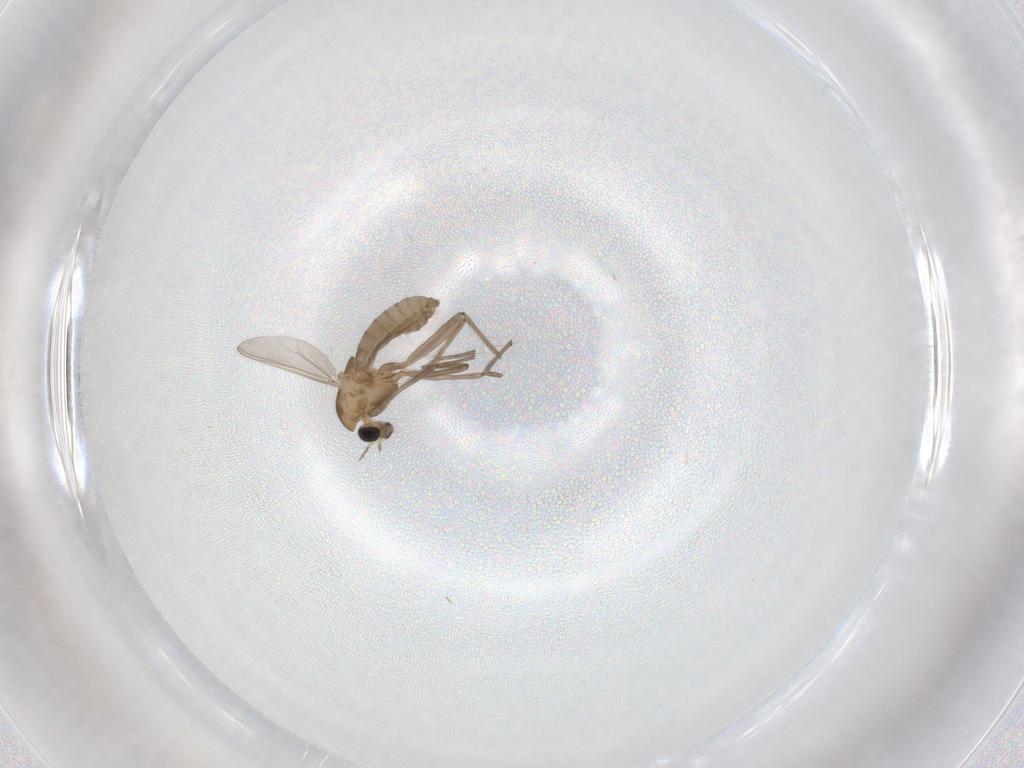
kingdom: Animalia
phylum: Arthropoda
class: Insecta
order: Diptera
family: Chironomidae
